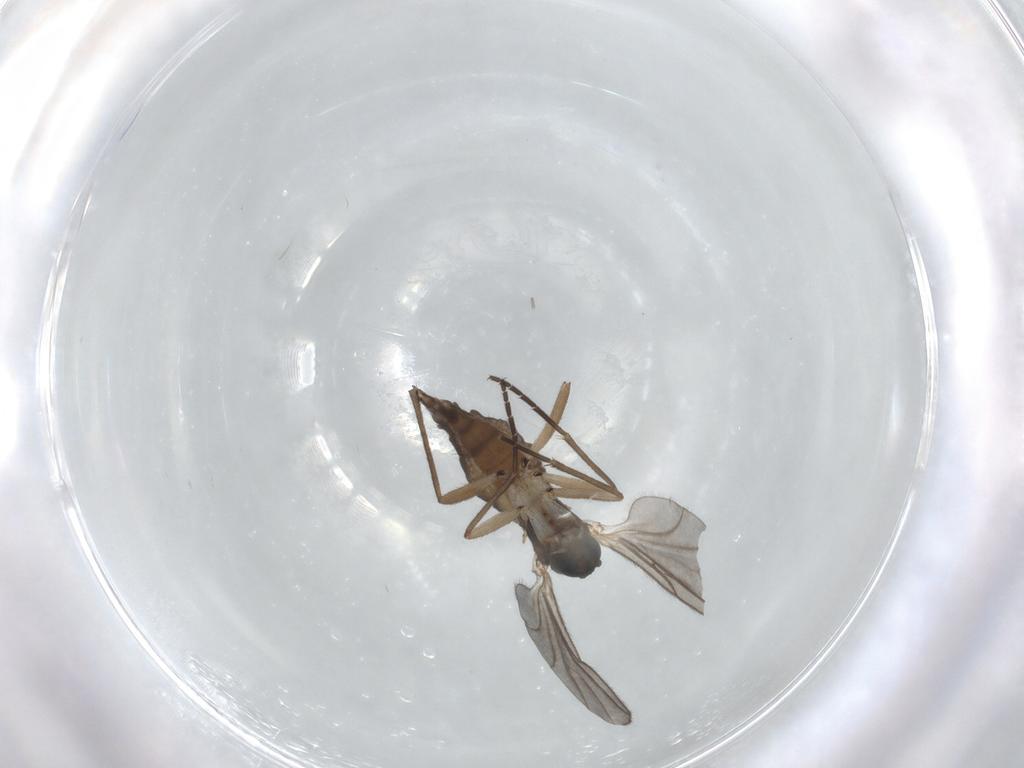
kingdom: Animalia
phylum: Arthropoda
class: Insecta
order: Diptera
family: Sciaridae
